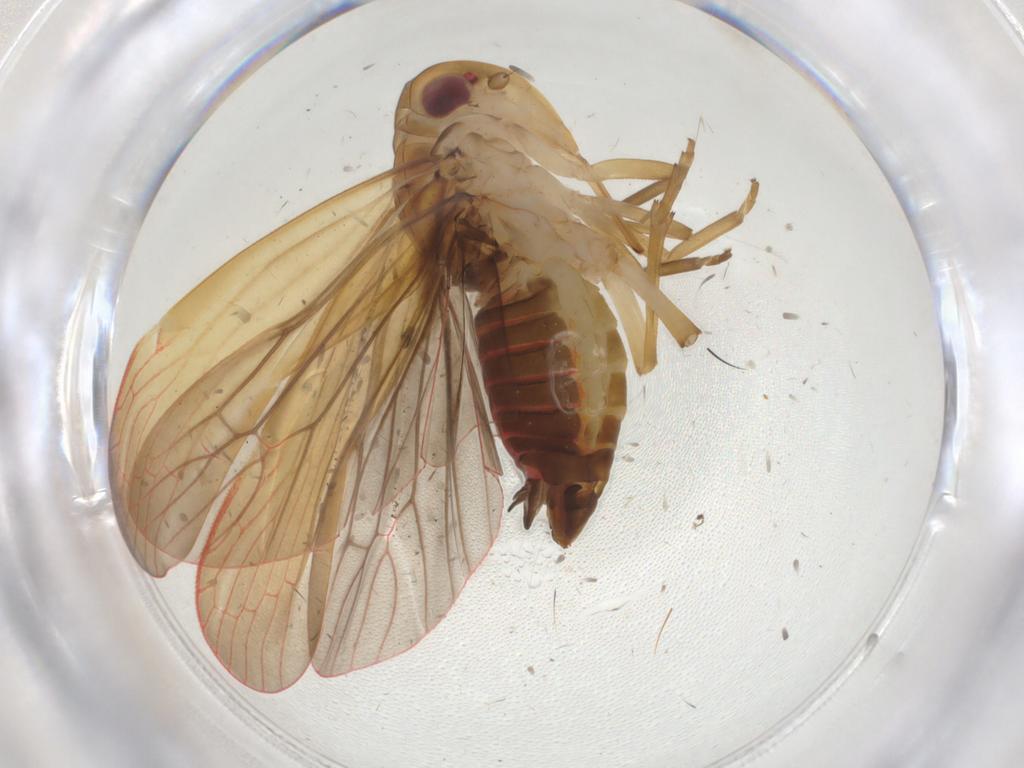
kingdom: Animalia
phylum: Arthropoda
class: Insecta
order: Hemiptera
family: Achilidae
